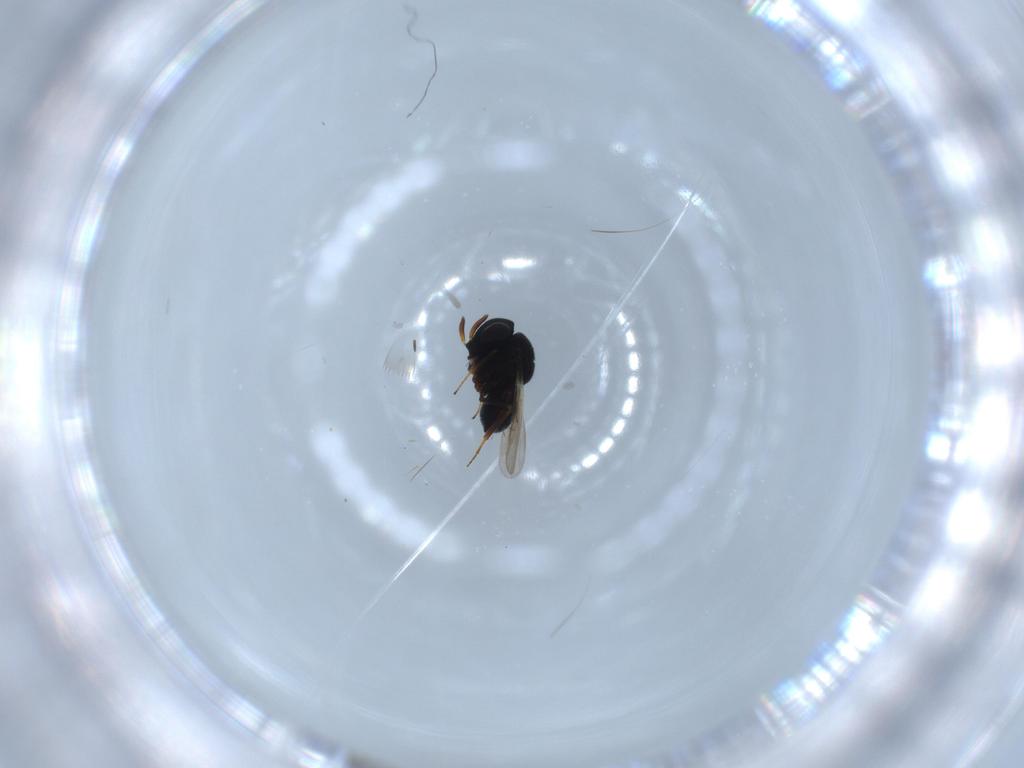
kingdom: Animalia
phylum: Arthropoda
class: Insecta
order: Hymenoptera
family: Scelionidae
